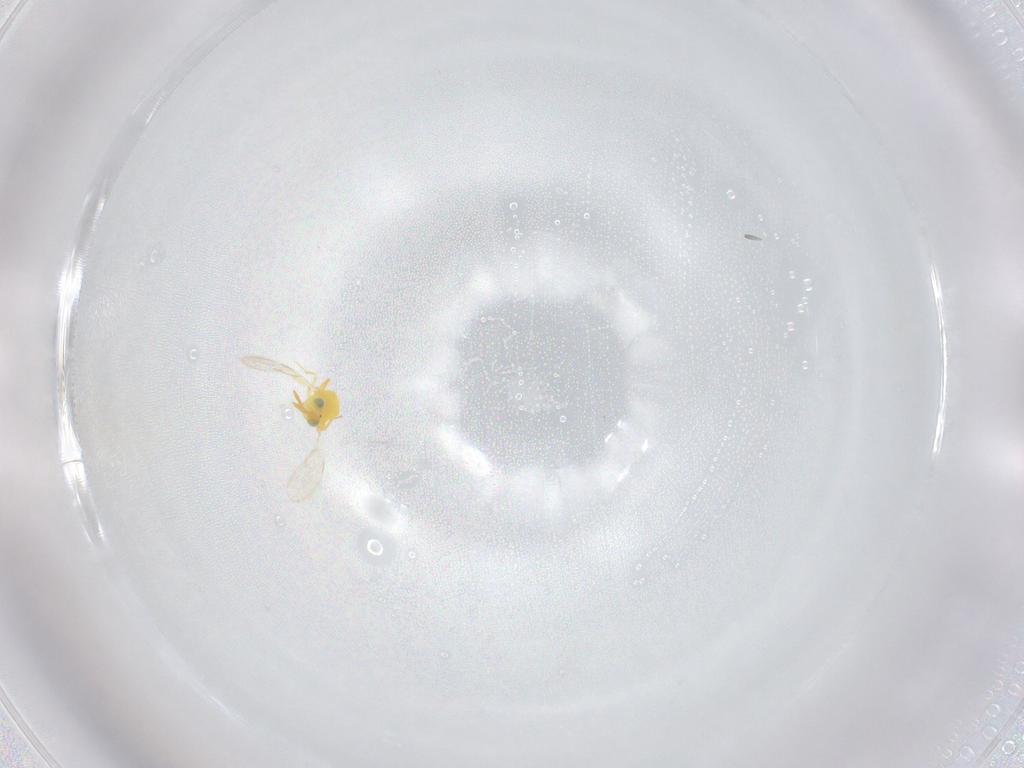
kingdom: Animalia
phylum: Arthropoda
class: Insecta
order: Hymenoptera
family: Mymaridae
